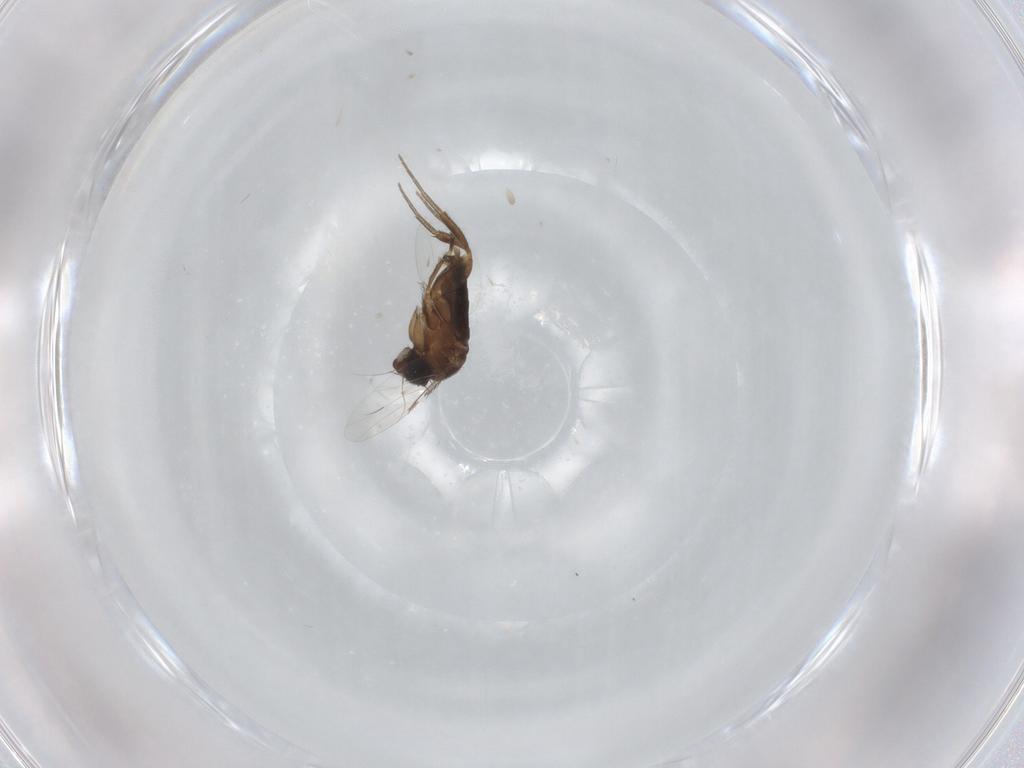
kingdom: Animalia
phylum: Arthropoda
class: Insecta
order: Diptera
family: Phoridae
